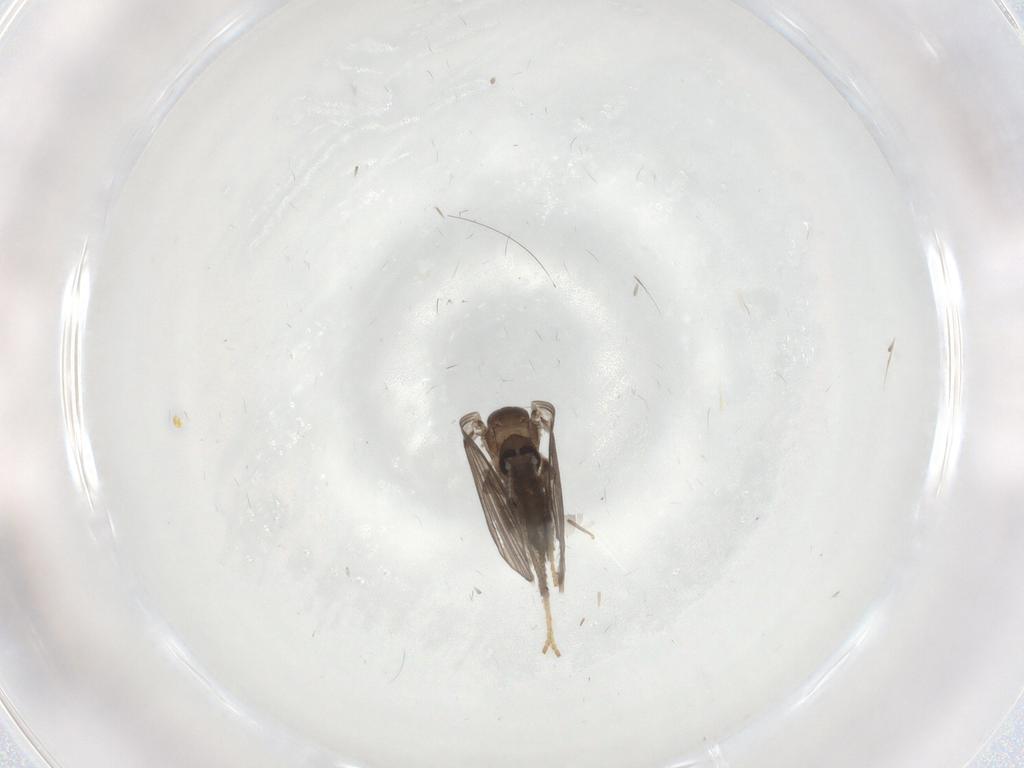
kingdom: Animalia
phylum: Arthropoda
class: Insecta
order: Diptera
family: Psychodidae
